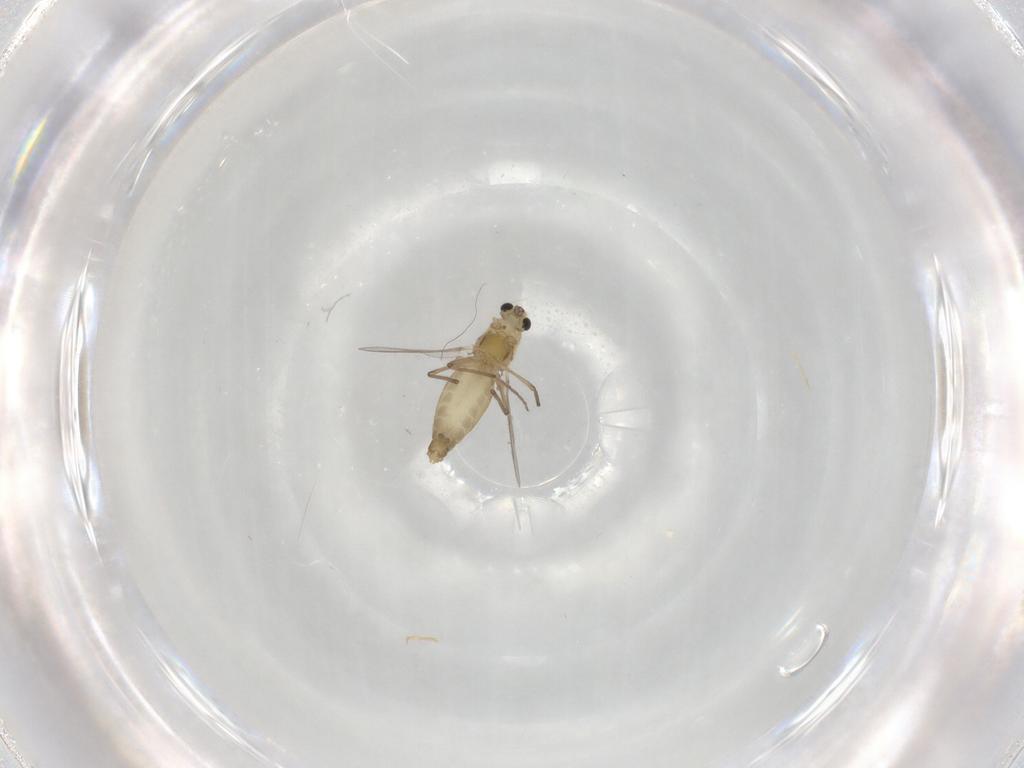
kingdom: Animalia
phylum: Arthropoda
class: Insecta
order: Diptera
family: Chironomidae
